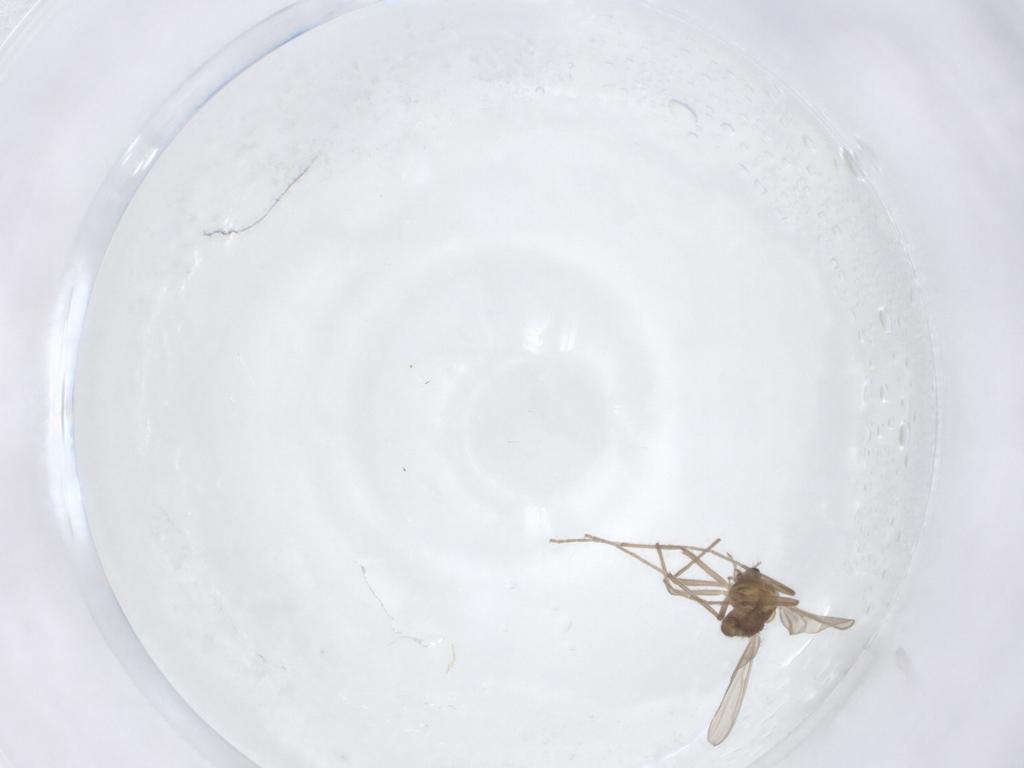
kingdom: Animalia
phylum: Arthropoda
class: Insecta
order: Diptera
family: Chironomidae
